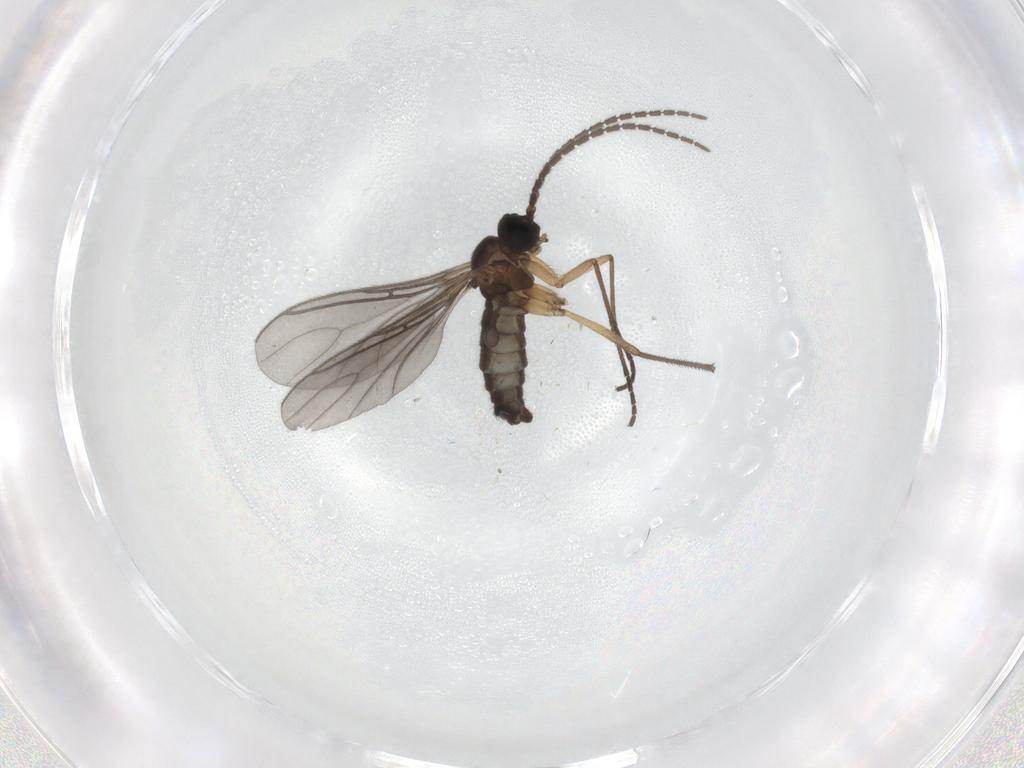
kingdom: Animalia
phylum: Arthropoda
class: Insecta
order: Diptera
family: Sciaridae
